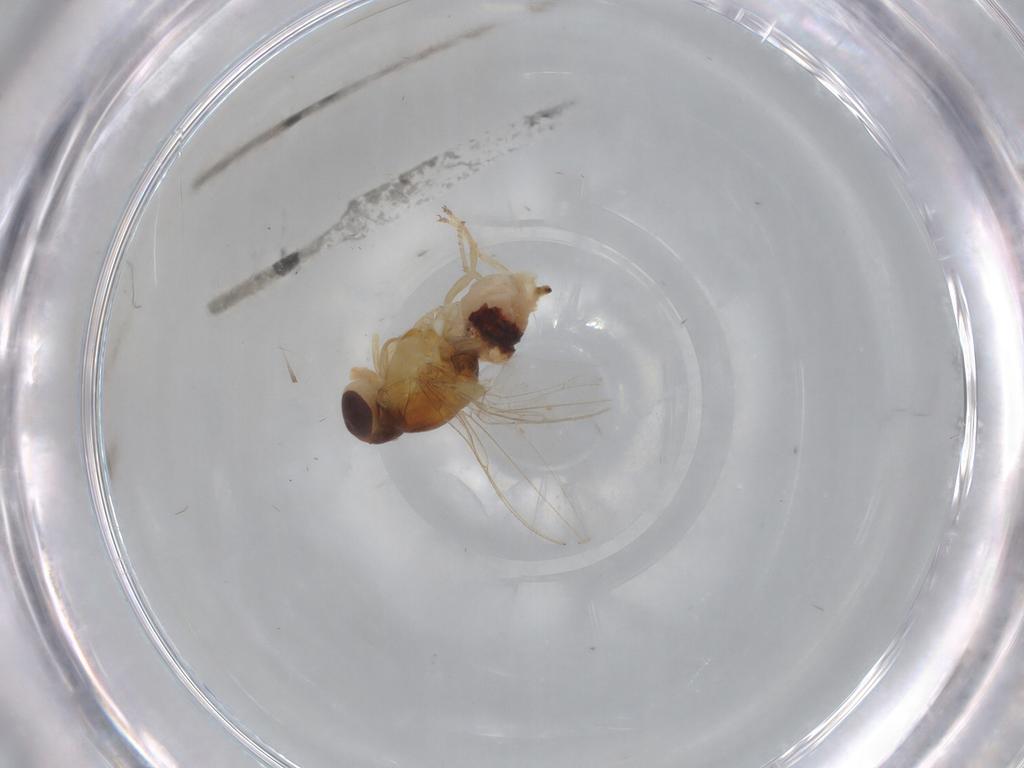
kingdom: Animalia
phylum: Arthropoda
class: Insecta
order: Diptera
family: Asteiidae
